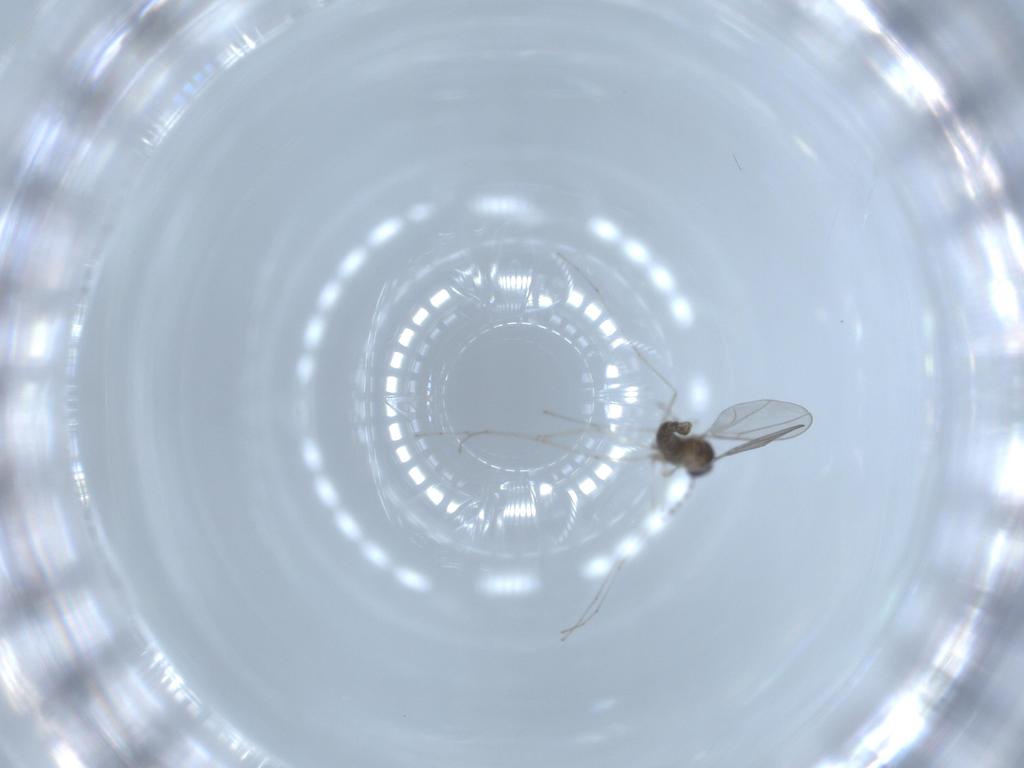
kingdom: Animalia
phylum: Arthropoda
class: Insecta
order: Diptera
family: Cecidomyiidae
